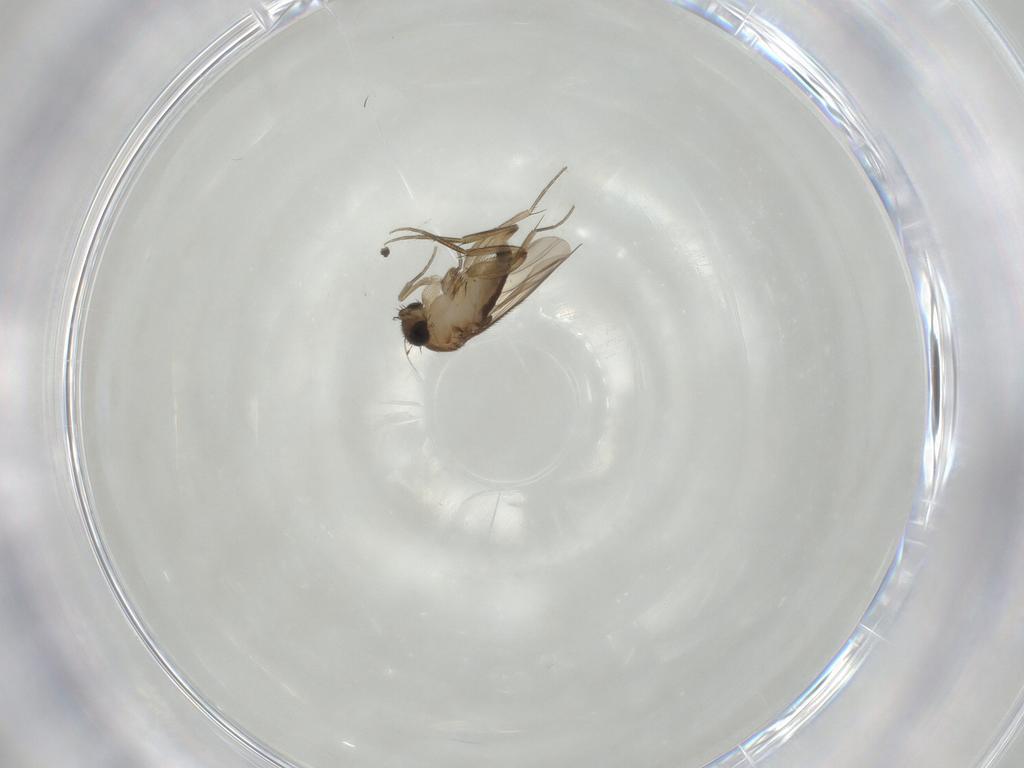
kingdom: Animalia
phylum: Arthropoda
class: Insecta
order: Diptera
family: Phoridae
